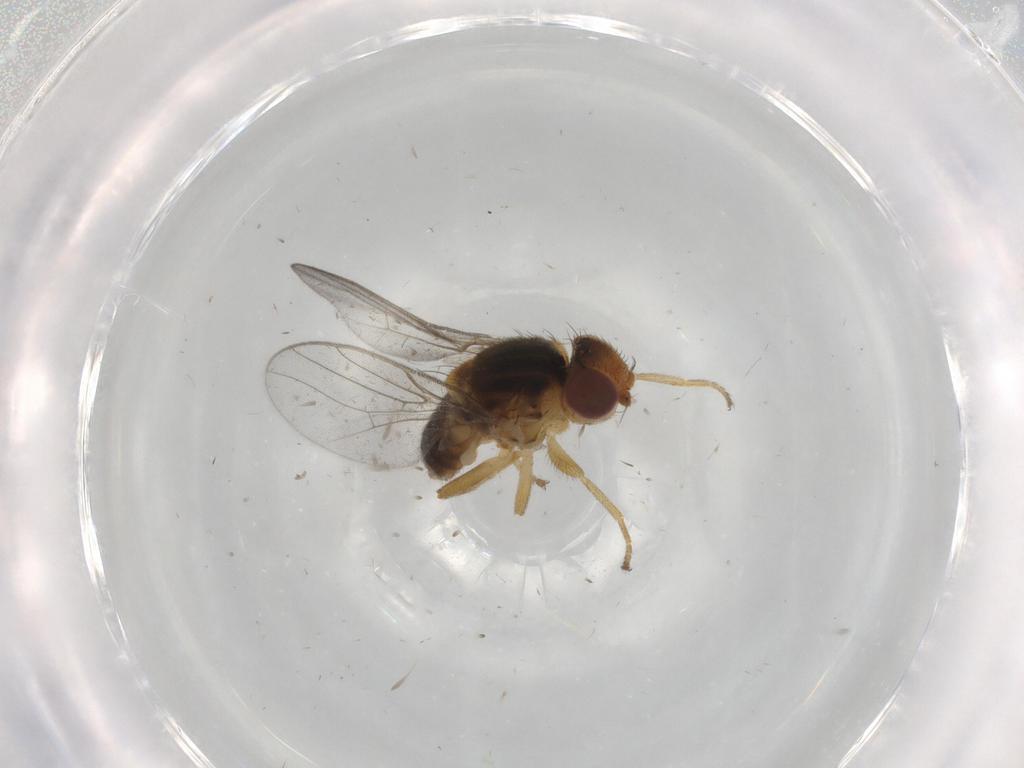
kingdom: Animalia
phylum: Arthropoda
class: Insecta
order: Diptera
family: Chloropidae
